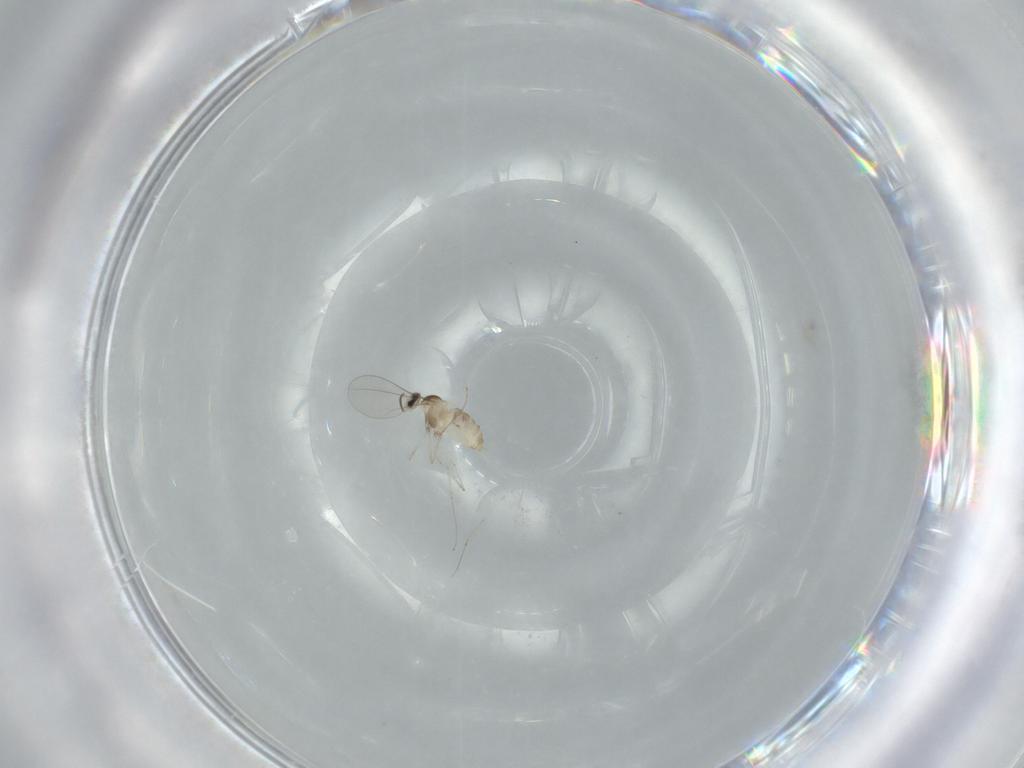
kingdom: Animalia
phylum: Arthropoda
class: Insecta
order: Diptera
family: Cecidomyiidae
